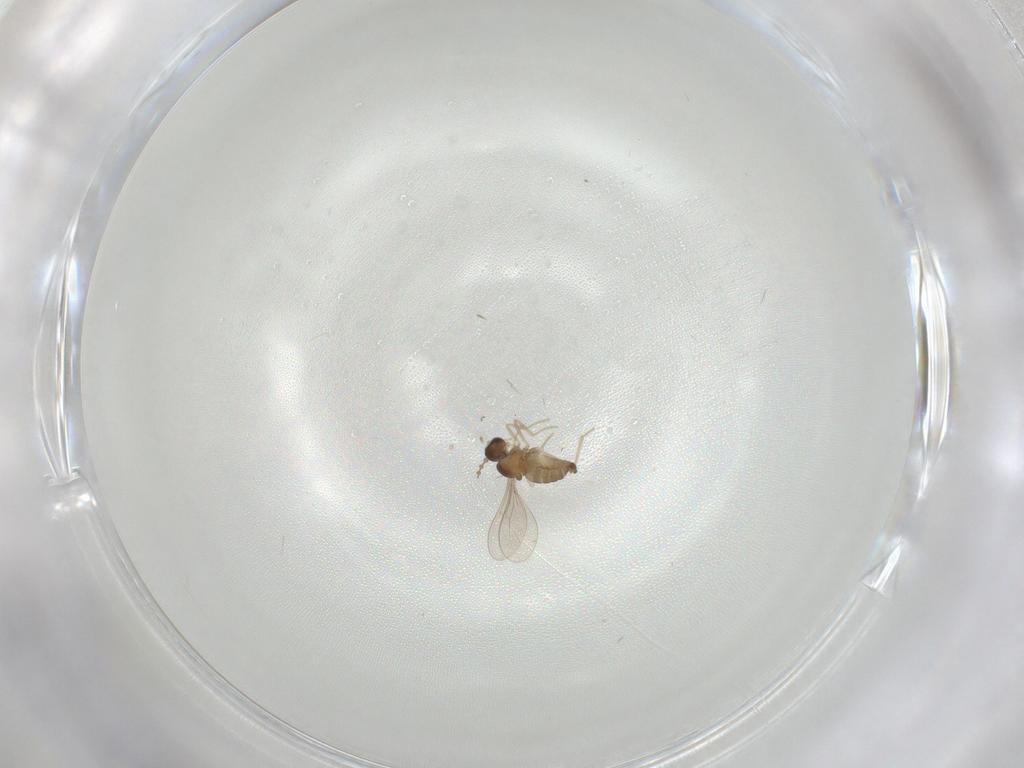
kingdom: Animalia
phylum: Arthropoda
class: Insecta
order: Diptera
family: Cecidomyiidae
